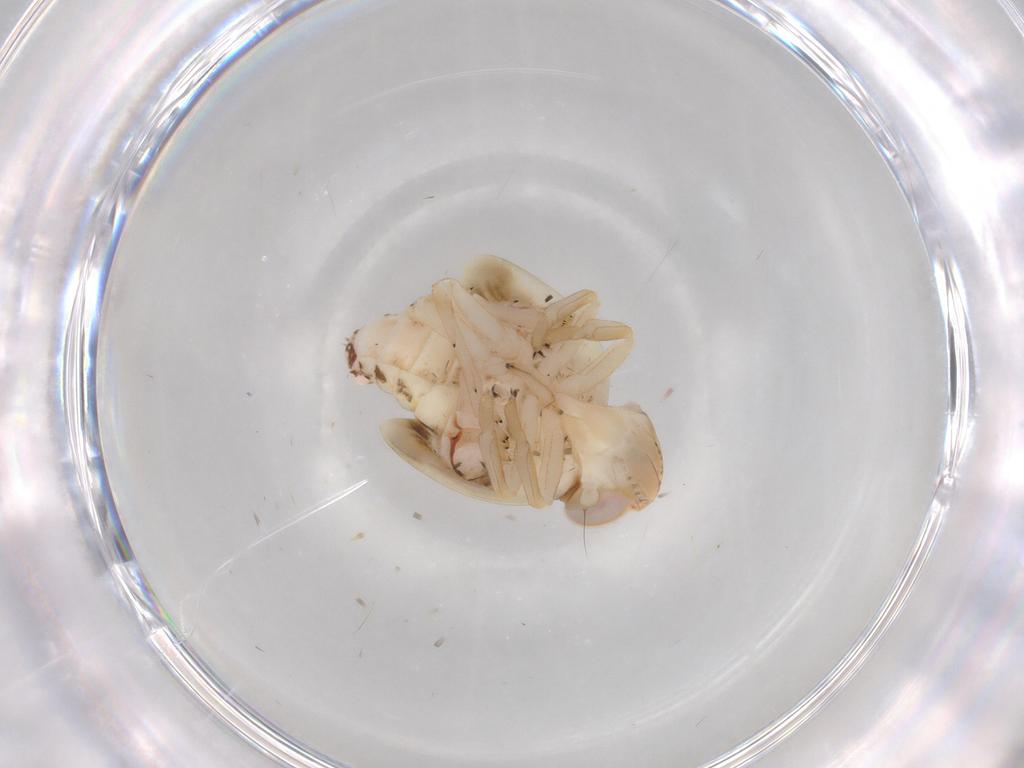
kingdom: Animalia
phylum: Arthropoda
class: Insecta
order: Hemiptera
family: Nogodinidae
